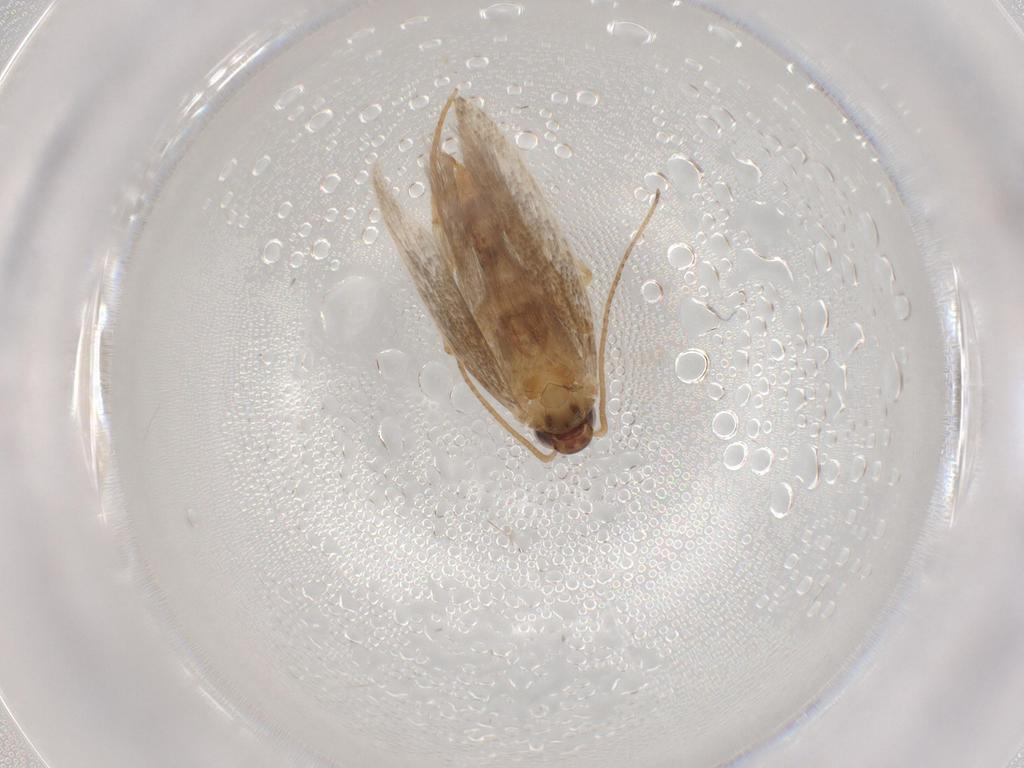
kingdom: Animalia
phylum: Arthropoda
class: Insecta
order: Lepidoptera
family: Plutellidae
